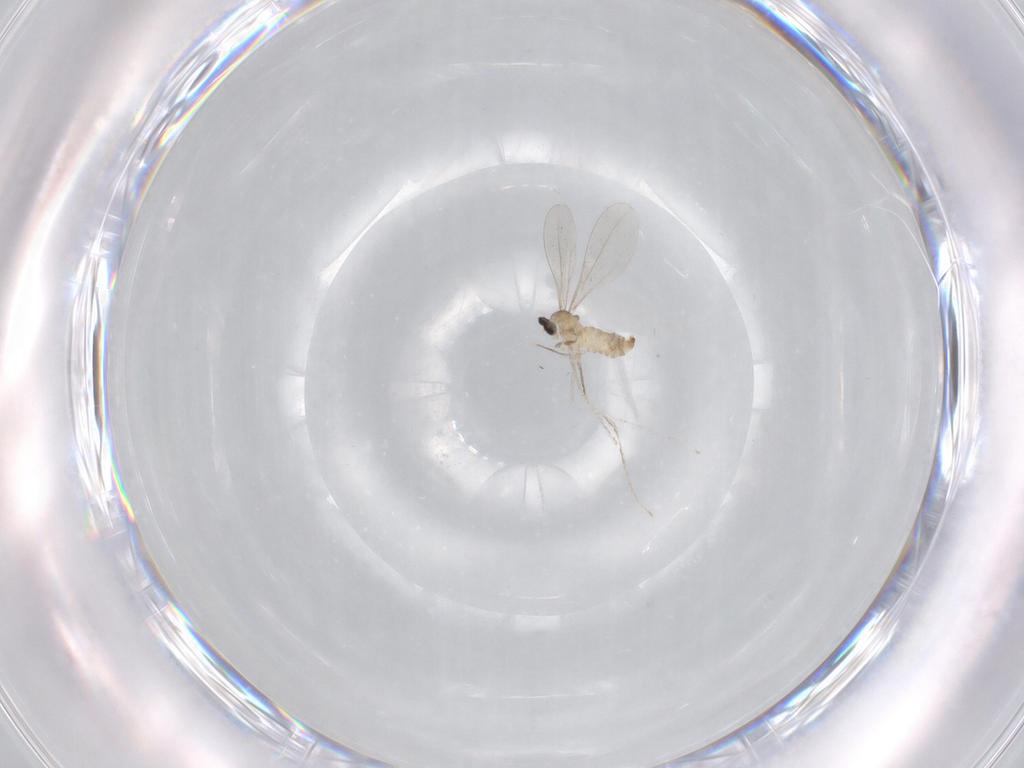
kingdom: Animalia
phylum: Arthropoda
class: Insecta
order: Diptera
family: Cecidomyiidae
